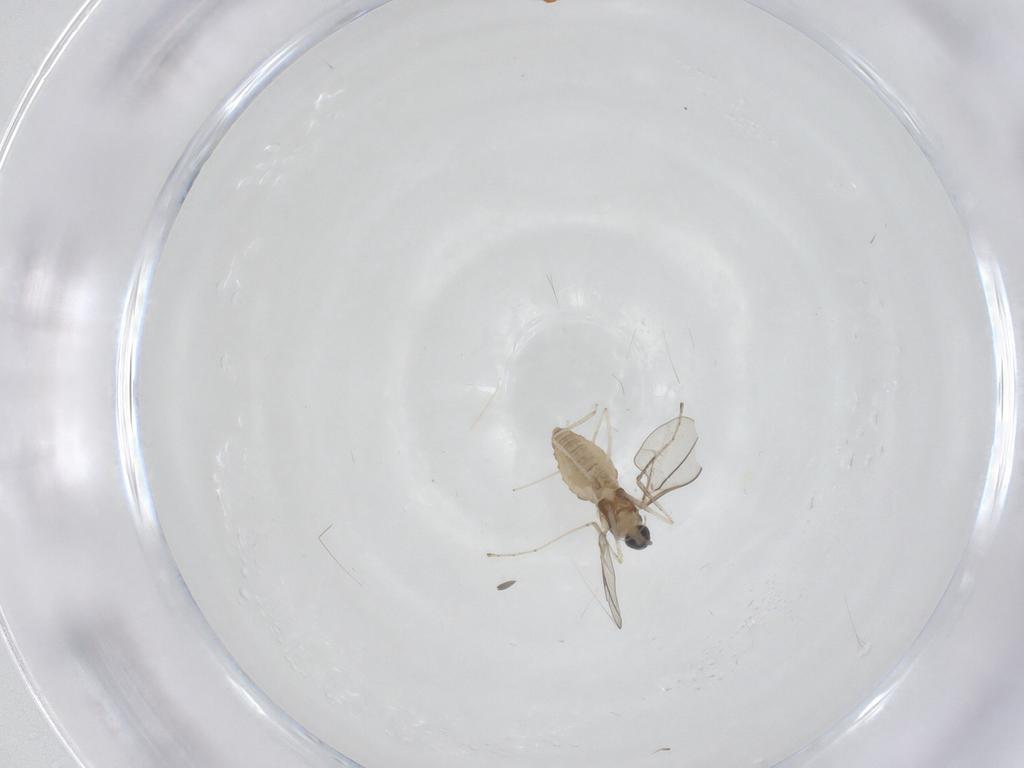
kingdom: Animalia
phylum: Arthropoda
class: Insecta
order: Diptera
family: Cecidomyiidae
